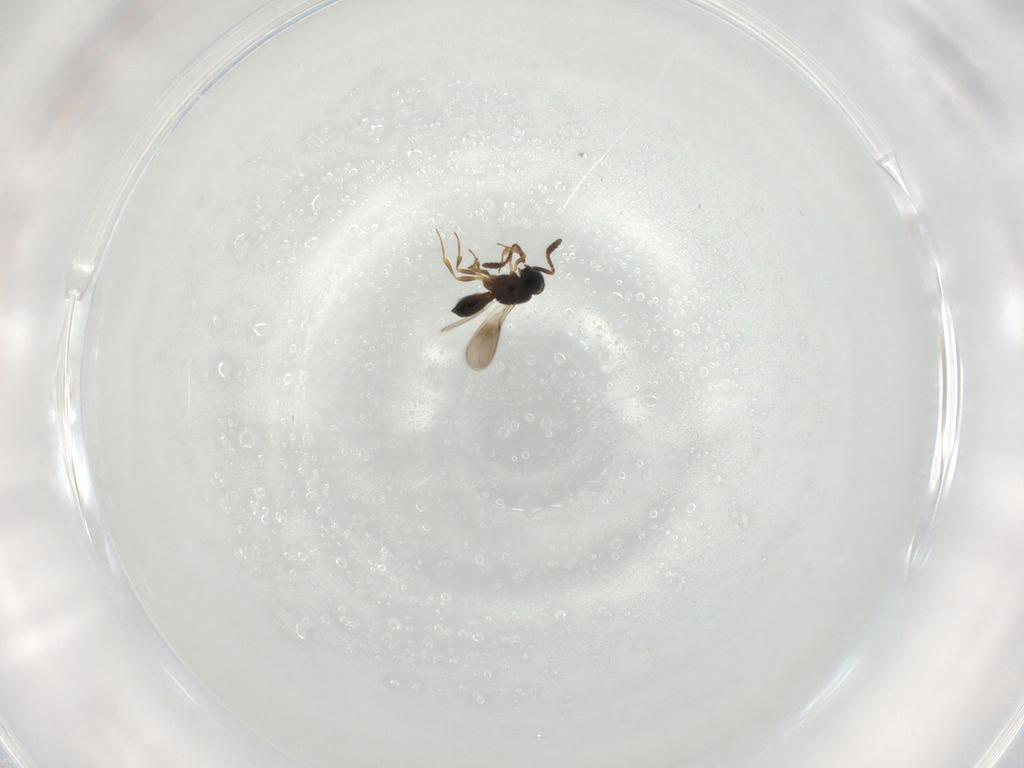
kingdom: Animalia
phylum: Arthropoda
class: Insecta
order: Hymenoptera
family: Scelionidae
